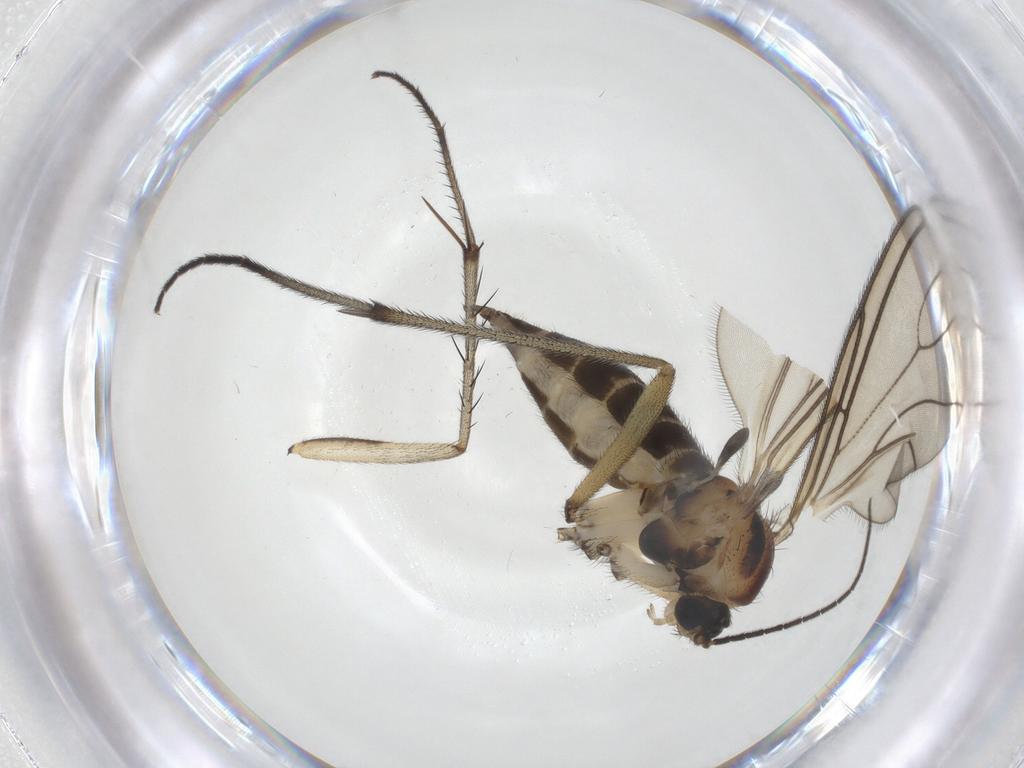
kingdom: Animalia
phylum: Arthropoda
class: Insecta
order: Diptera
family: Sciaridae
